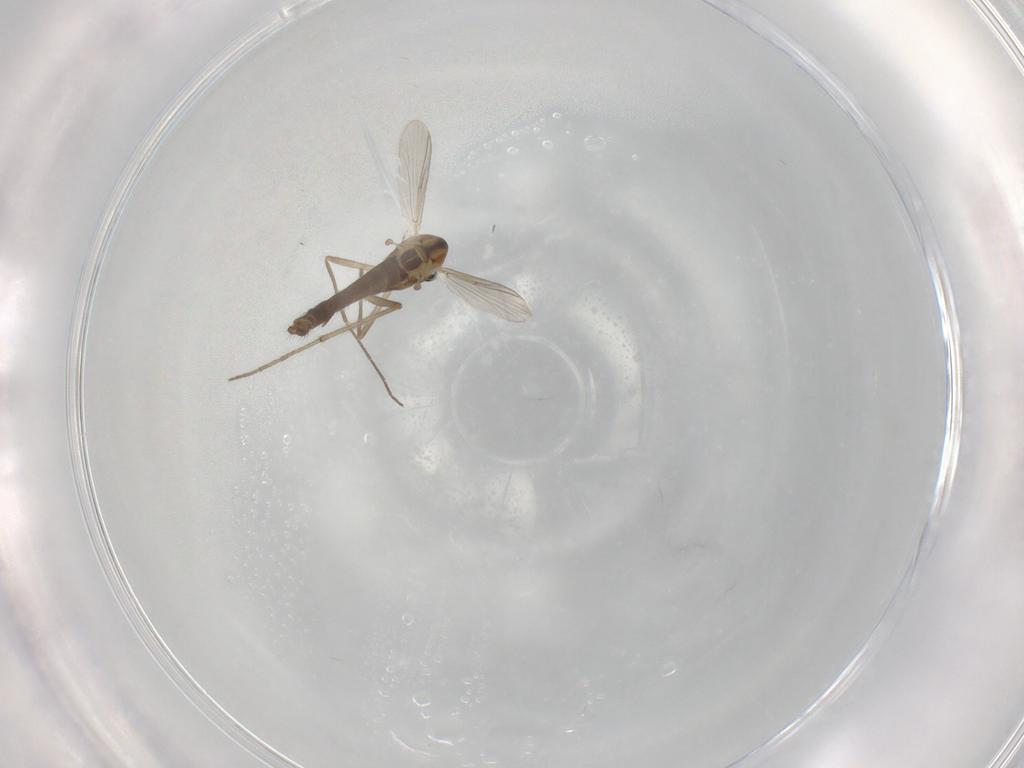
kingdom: Animalia
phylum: Arthropoda
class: Insecta
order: Diptera
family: Chironomidae
